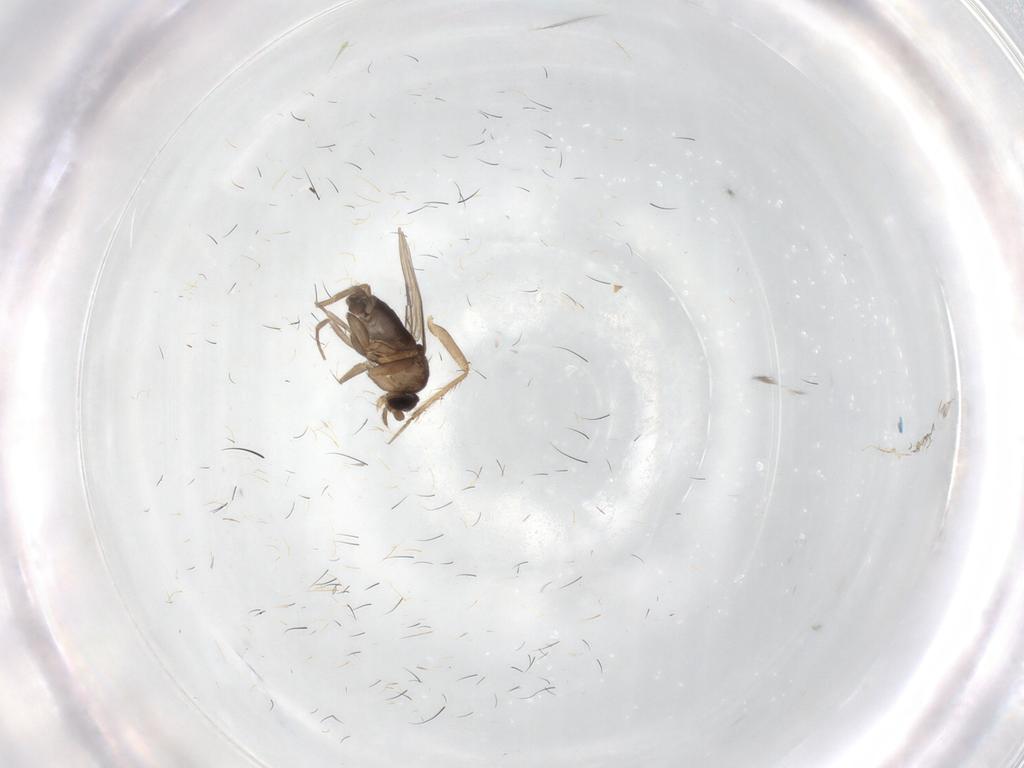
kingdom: Animalia
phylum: Arthropoda
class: Insecta
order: Diptera
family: Phoridae
